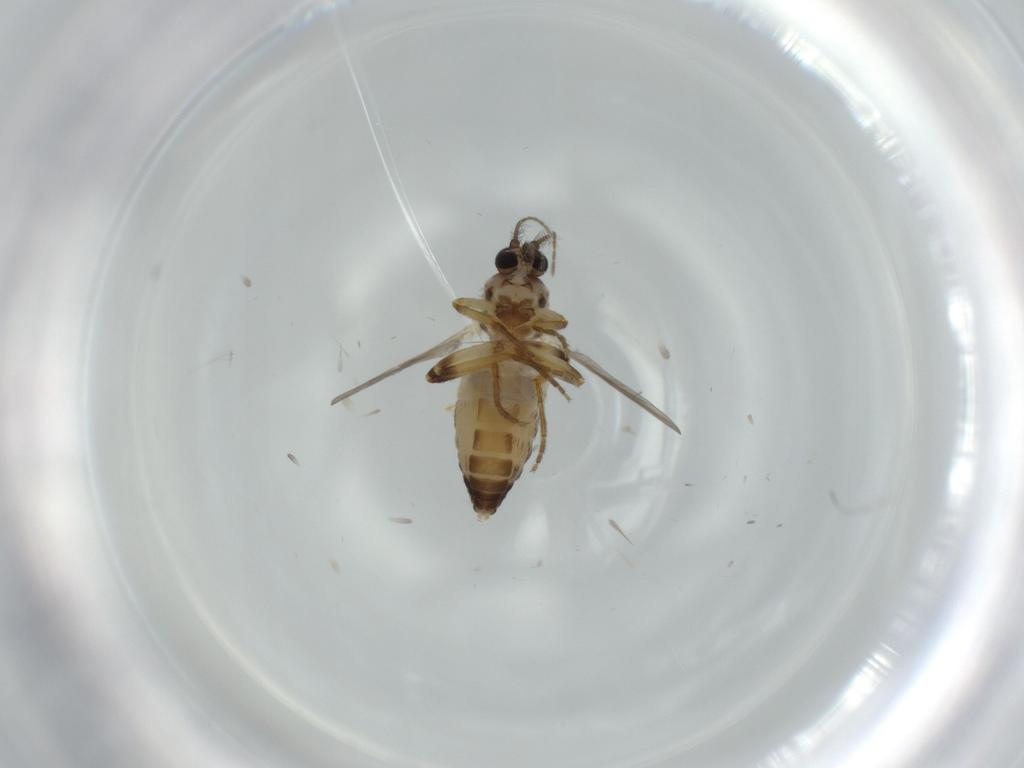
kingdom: Animalia
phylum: Arthropoda
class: Insecta
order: Diptera
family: Ceratopogonidae
